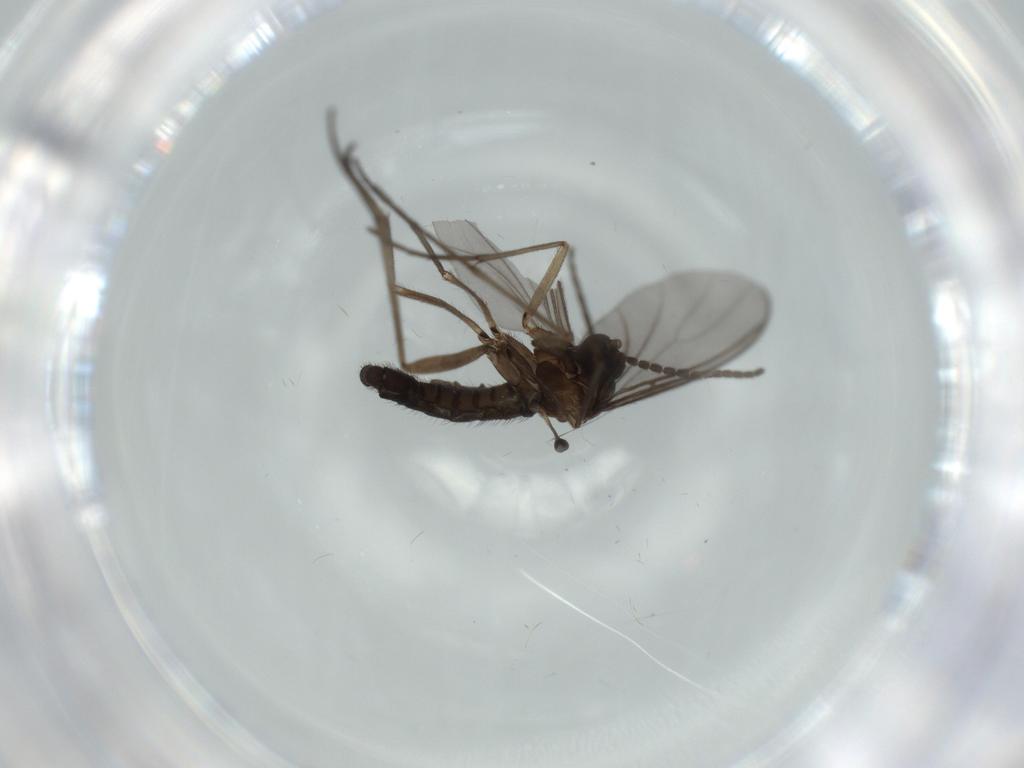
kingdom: Animalia
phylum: Arthropoda
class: Insecta
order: Diptera
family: Sciaridae
